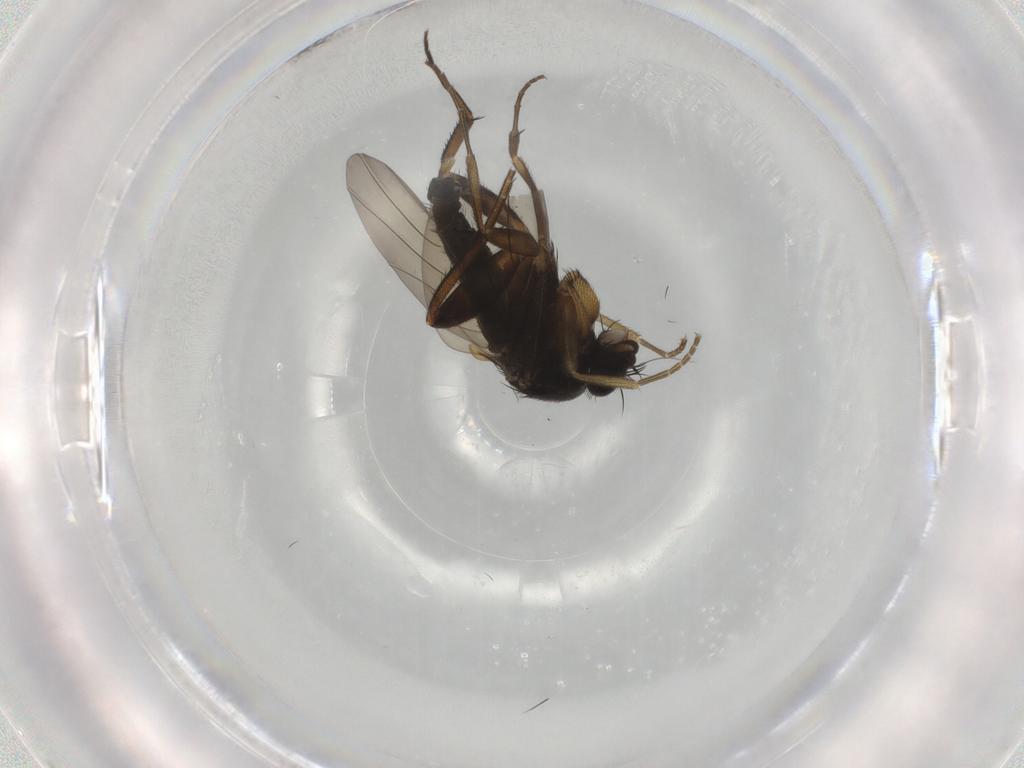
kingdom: Animalia
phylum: Arthropoda
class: Insecta
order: Diptera
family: Phoridae
